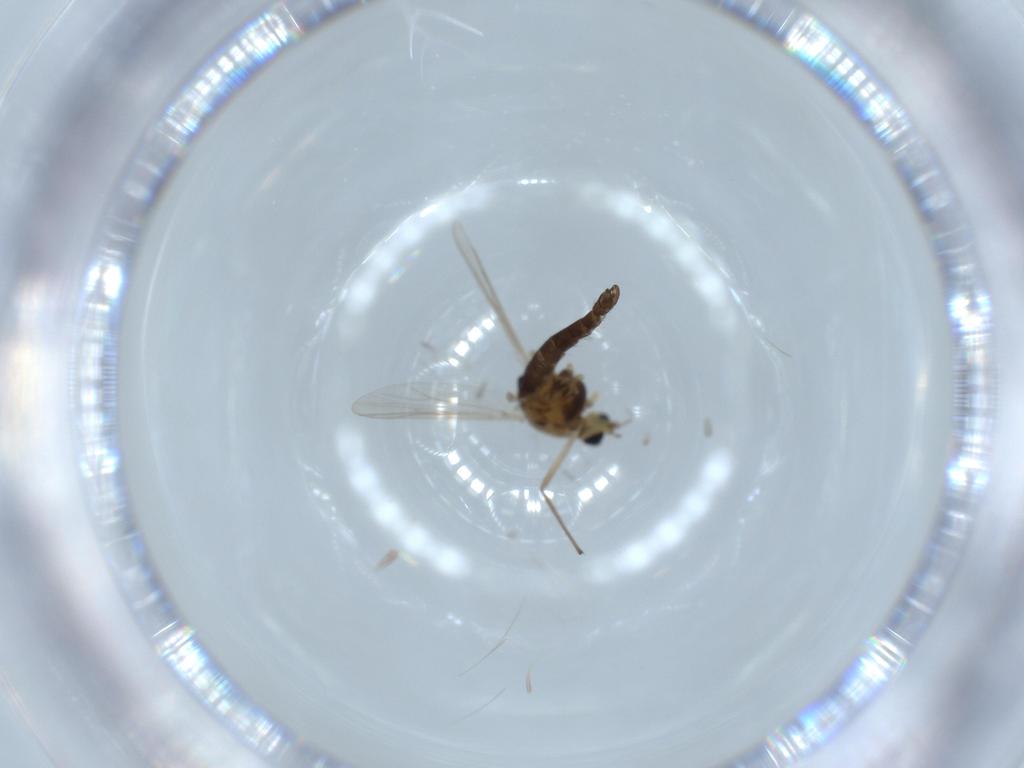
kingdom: Animalia
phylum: Arthropoda
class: Insecta
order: Diptera
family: Chironomidae
